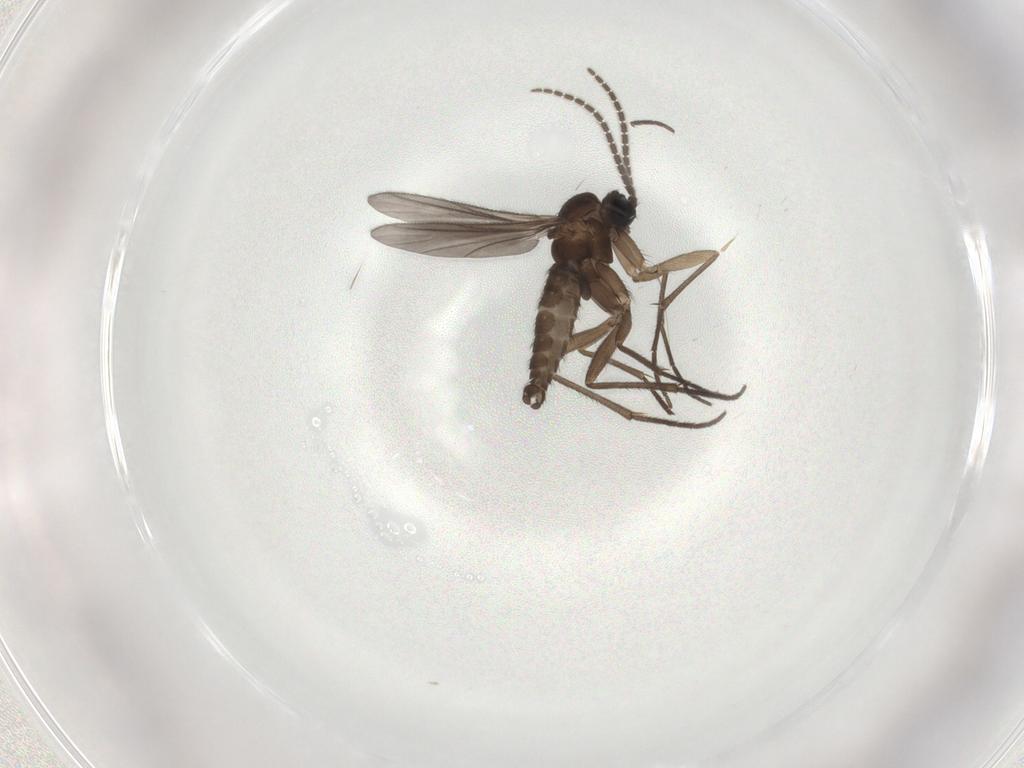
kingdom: Animalia
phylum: Arthropoda
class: Insecta
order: Diptera
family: Sciaridae
